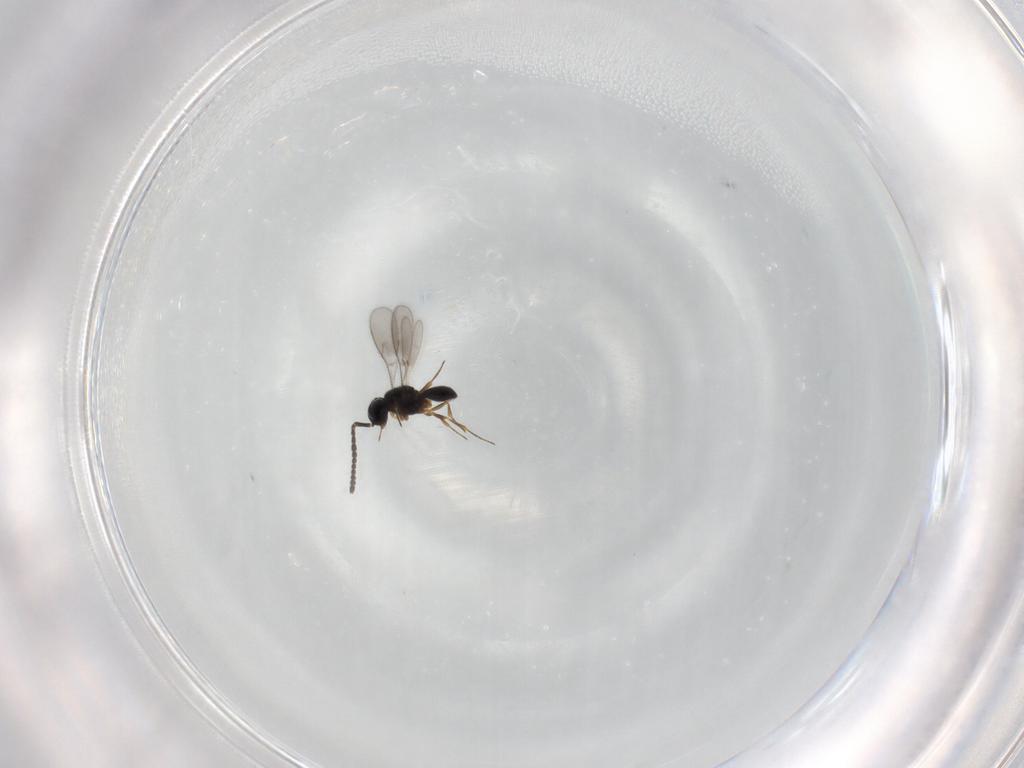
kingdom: Animalia
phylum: Arthropoda
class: Insecta
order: Hymenoptera
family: Scelionidae
